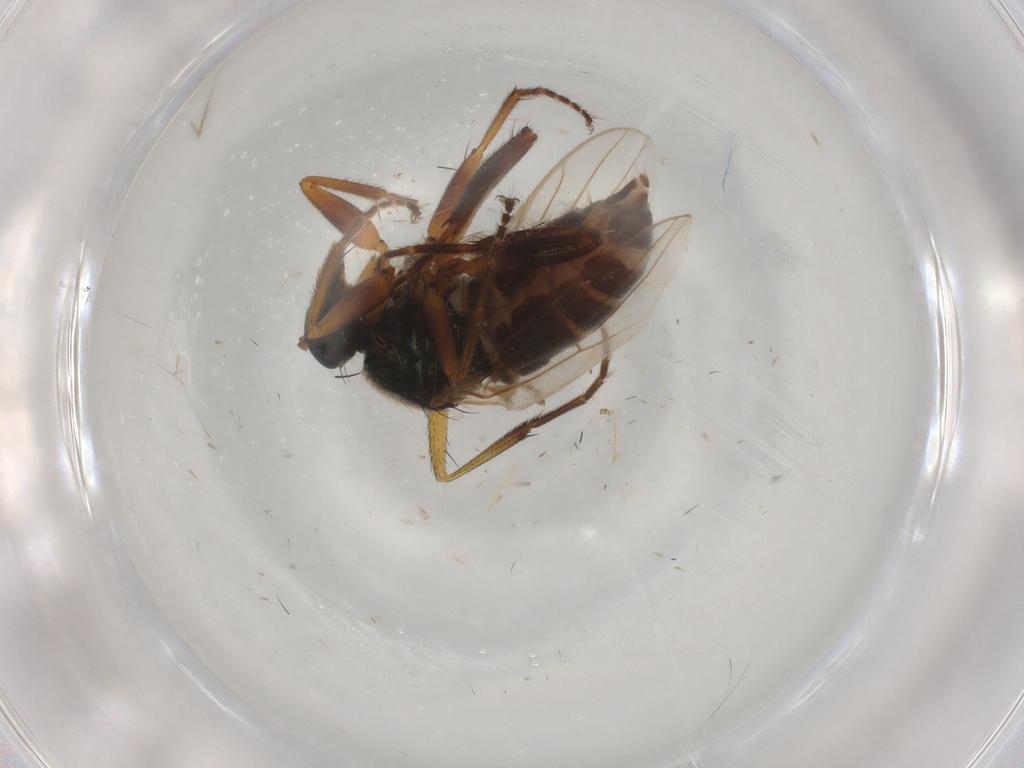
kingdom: Animalia
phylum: Arthropoda
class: Insecta
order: Diptera
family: Hybotidae
